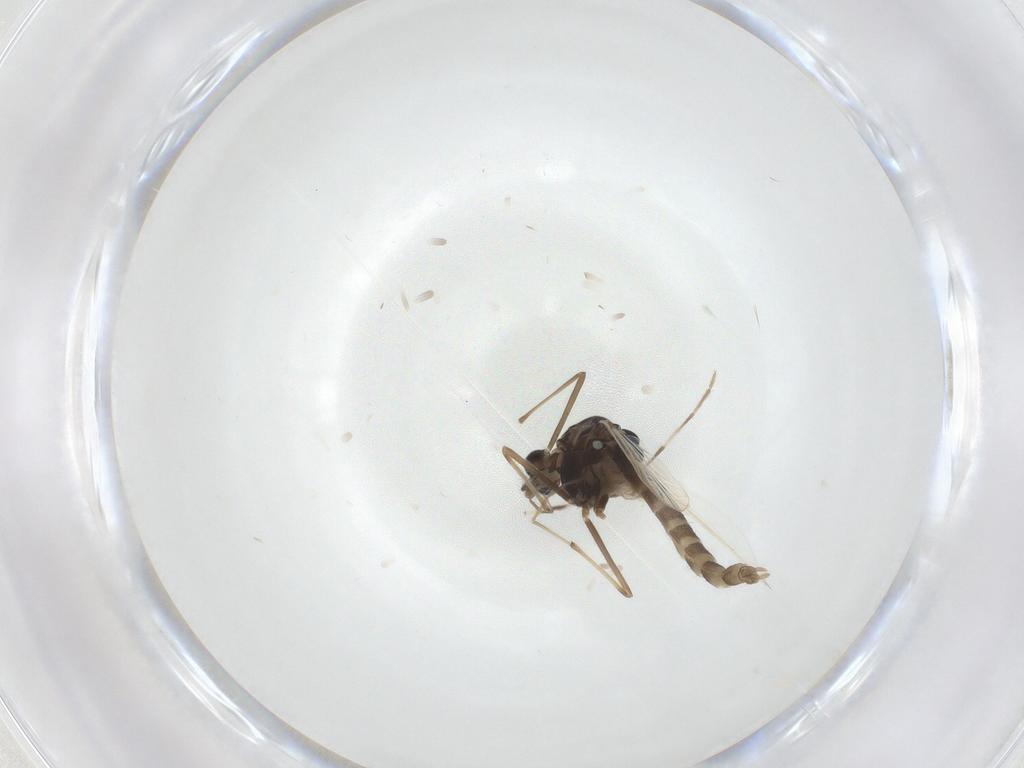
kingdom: Animalia
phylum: Arthropoda
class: Insecta
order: Diptera
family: Chironomidae
